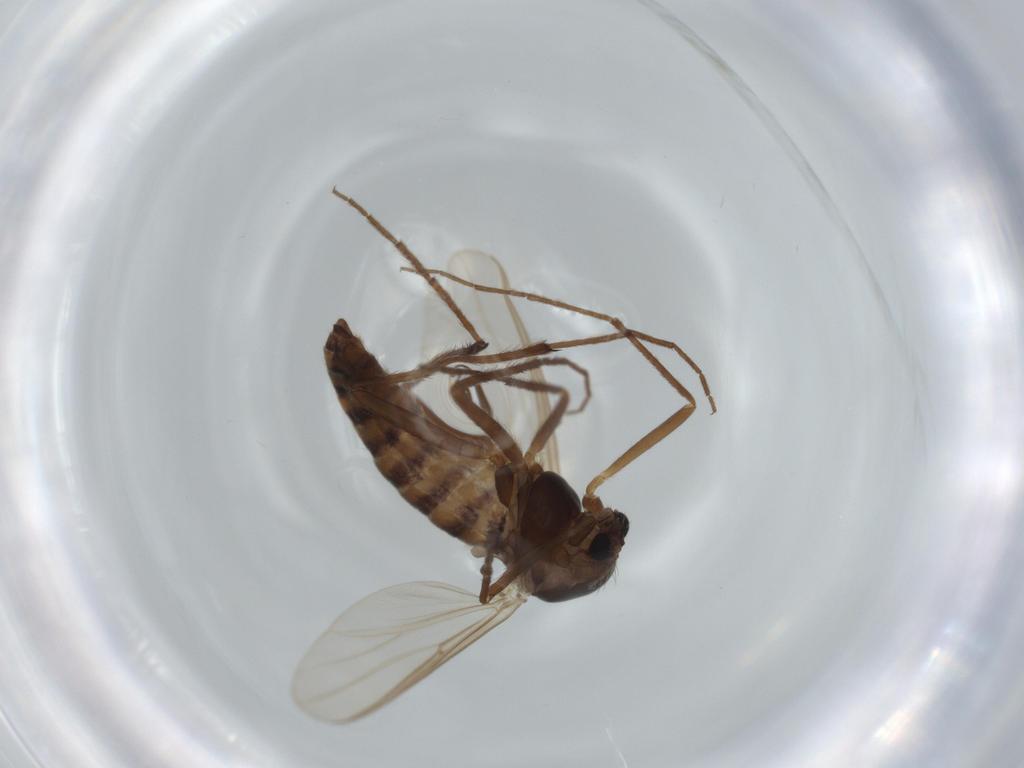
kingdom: Animalia
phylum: Arthropoda
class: Insecta
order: Diptera
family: Chironomidae
